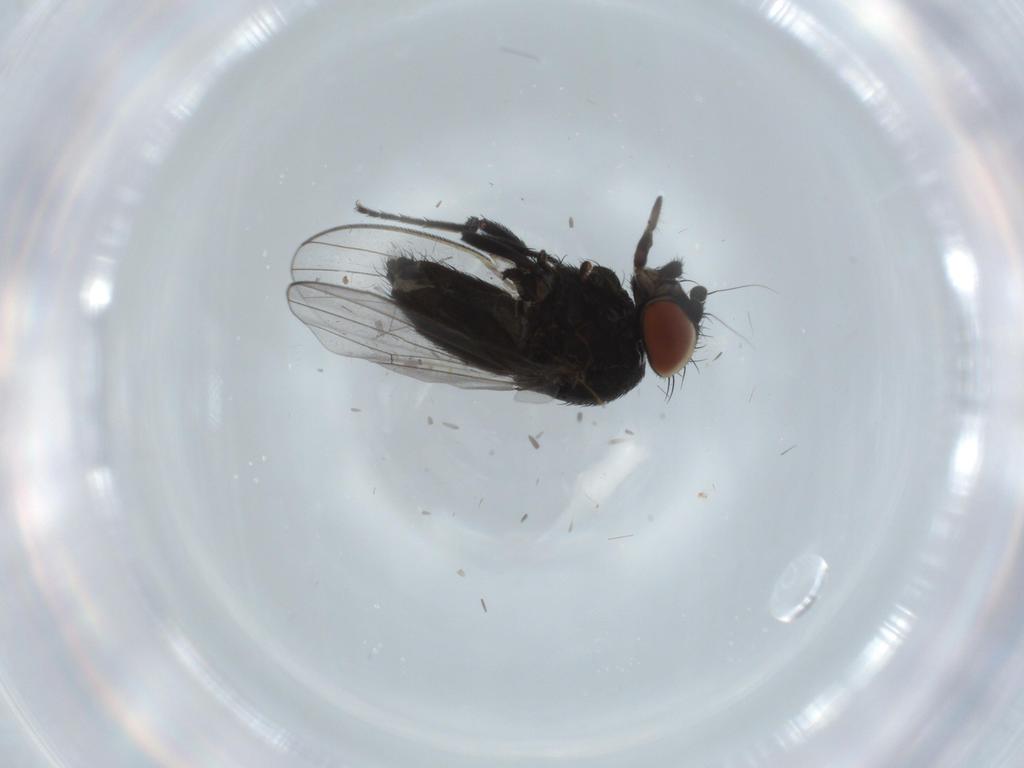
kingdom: Animalia
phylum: Arthropoda
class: Insecta
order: Diptera
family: Milichiidae
